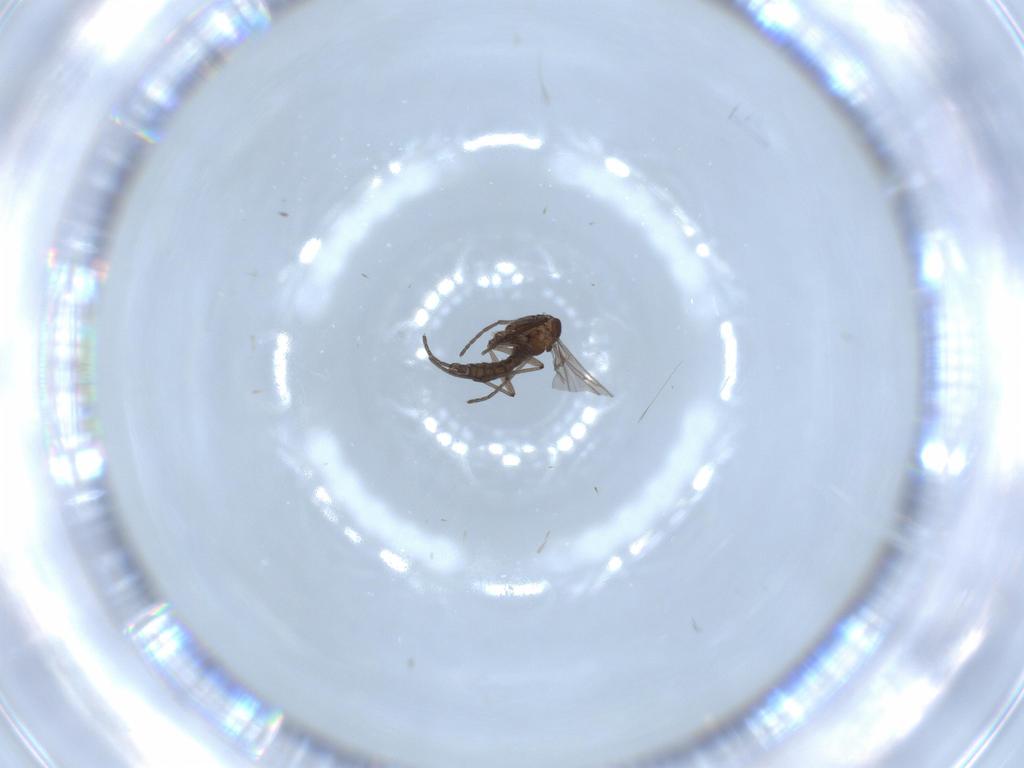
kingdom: Animalia
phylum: Arthropoda
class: Insecta
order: Diptera
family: Sciaridae
